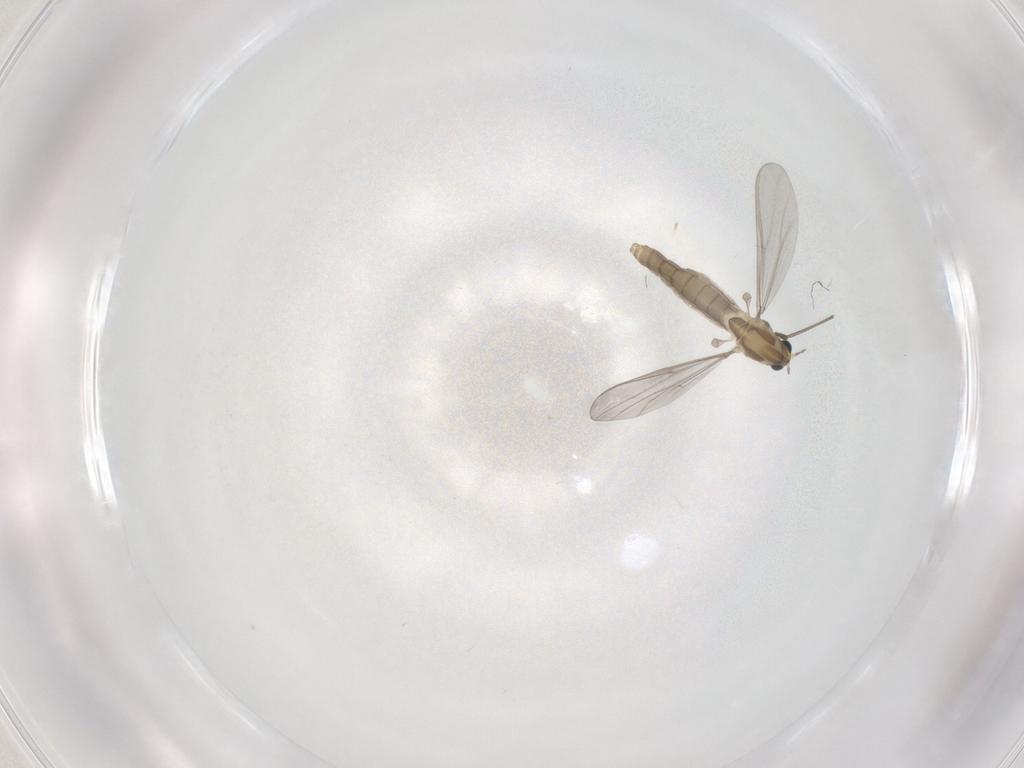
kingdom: Animalia
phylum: Arthropoda
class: Insecta
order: Diptera
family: Chironomidae
